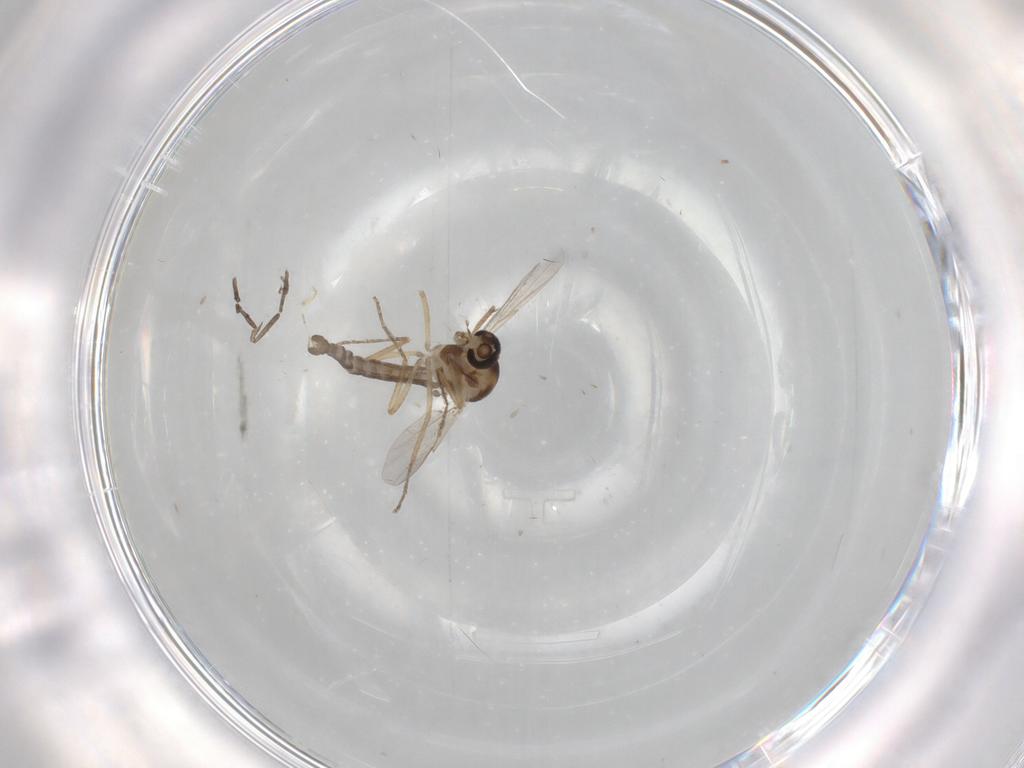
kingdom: Animalia
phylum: Arthropoda
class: Insecta
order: Diptera
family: Ceratopogonidae
